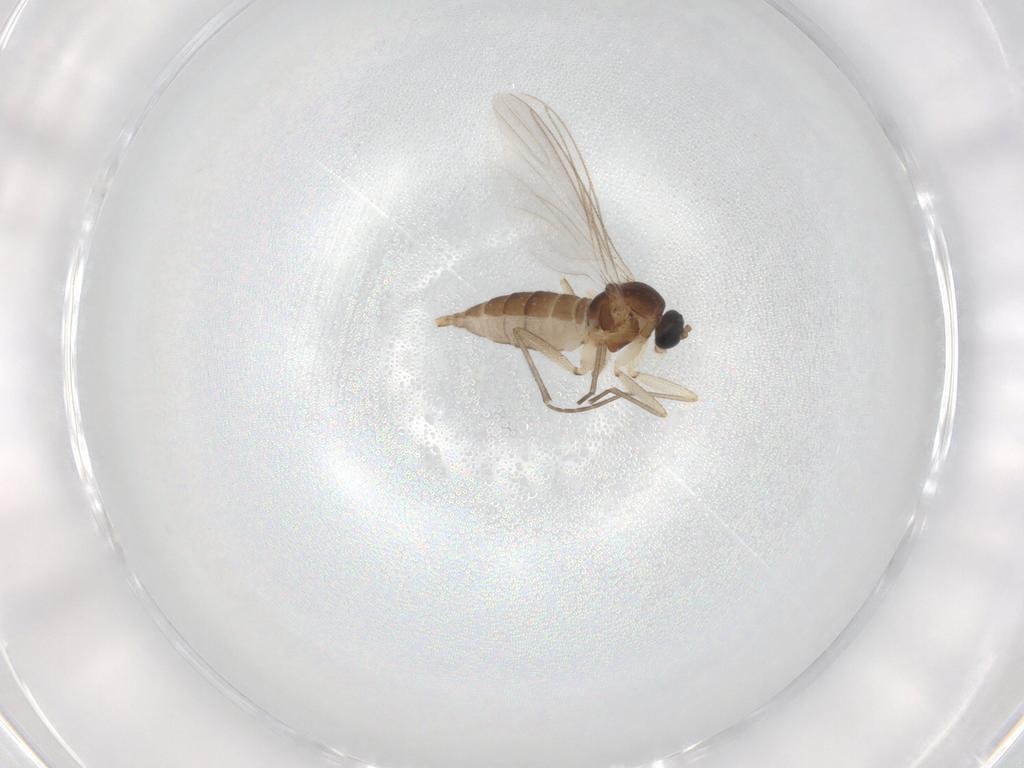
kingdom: Animalia
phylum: Arthropoda
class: Insecta
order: Diptera
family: Sciaridae
